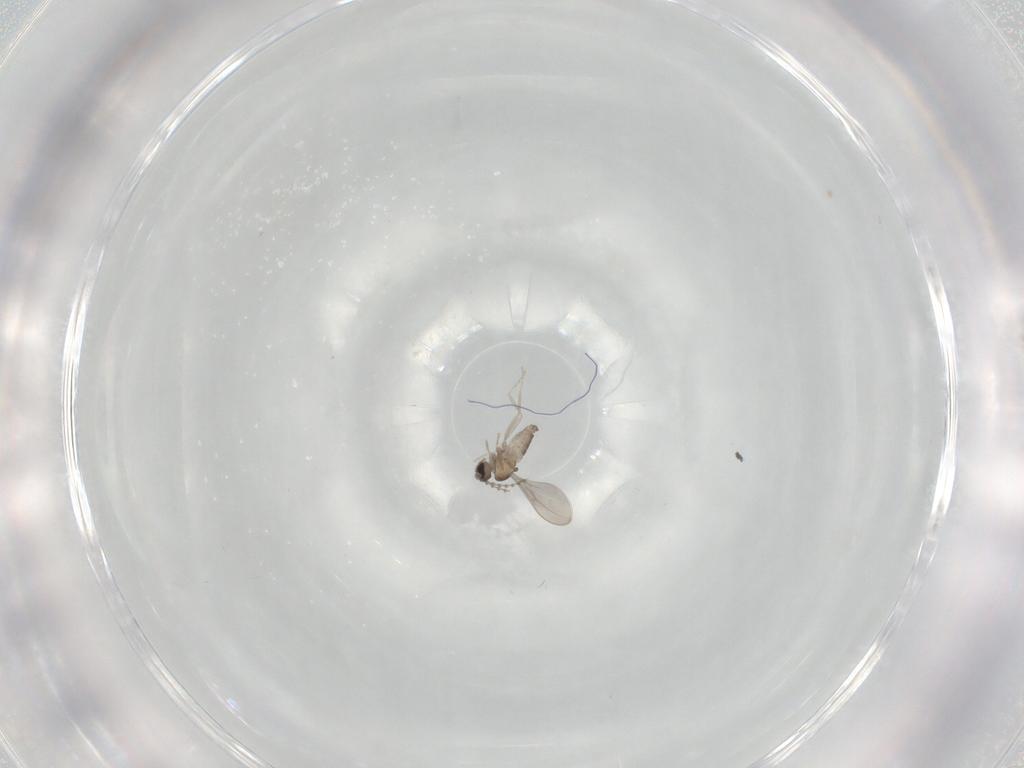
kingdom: Animalia
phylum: Arthropoda
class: Insecta
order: Diptera
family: Cecidomyiidae
